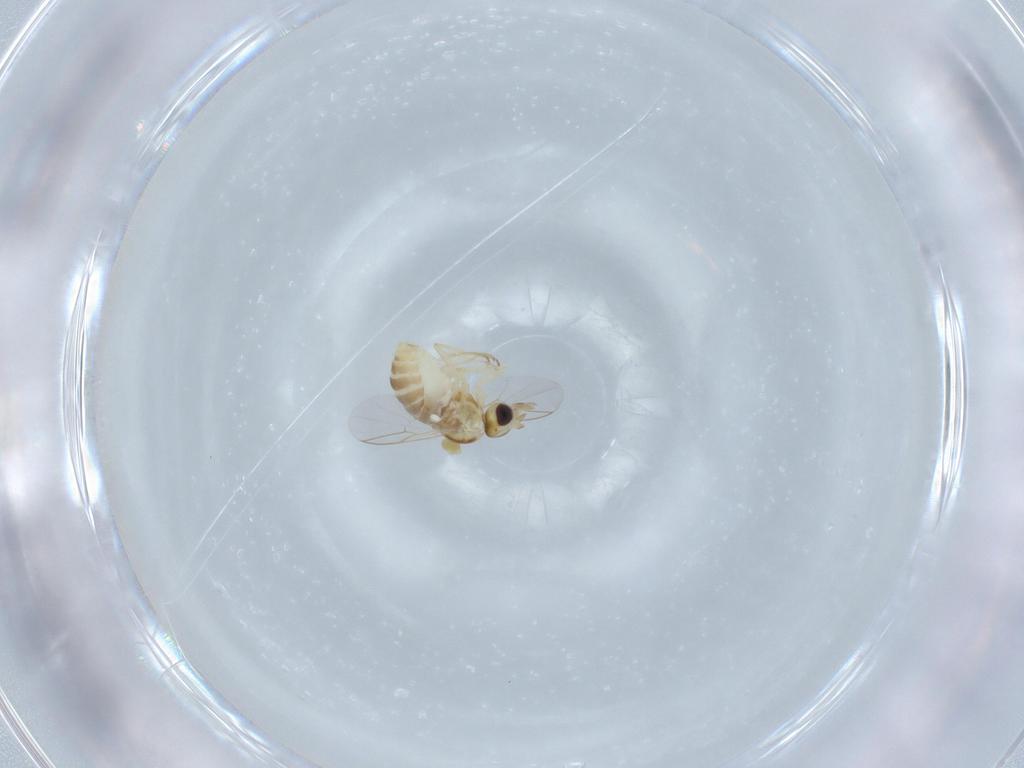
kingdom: Animalia
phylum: Arthropoda
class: Insecta
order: Diptera
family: Mythicomyiidae
